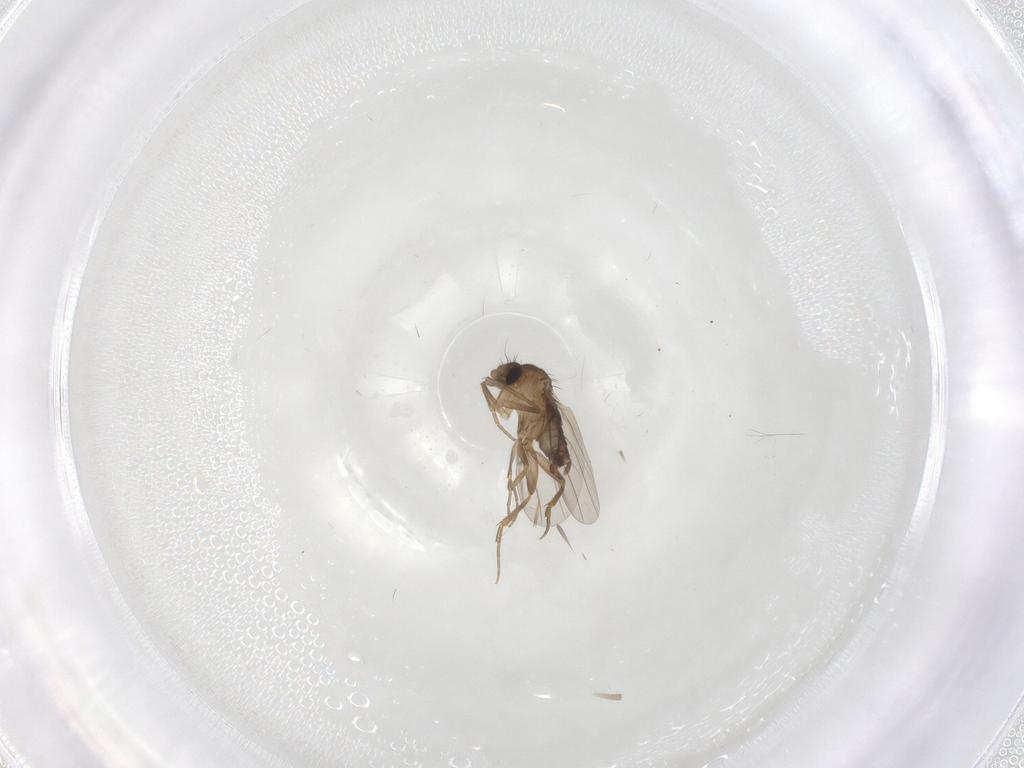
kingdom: Animalia
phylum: Arthropoda
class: Insecta
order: Diptera
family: Phoridae
